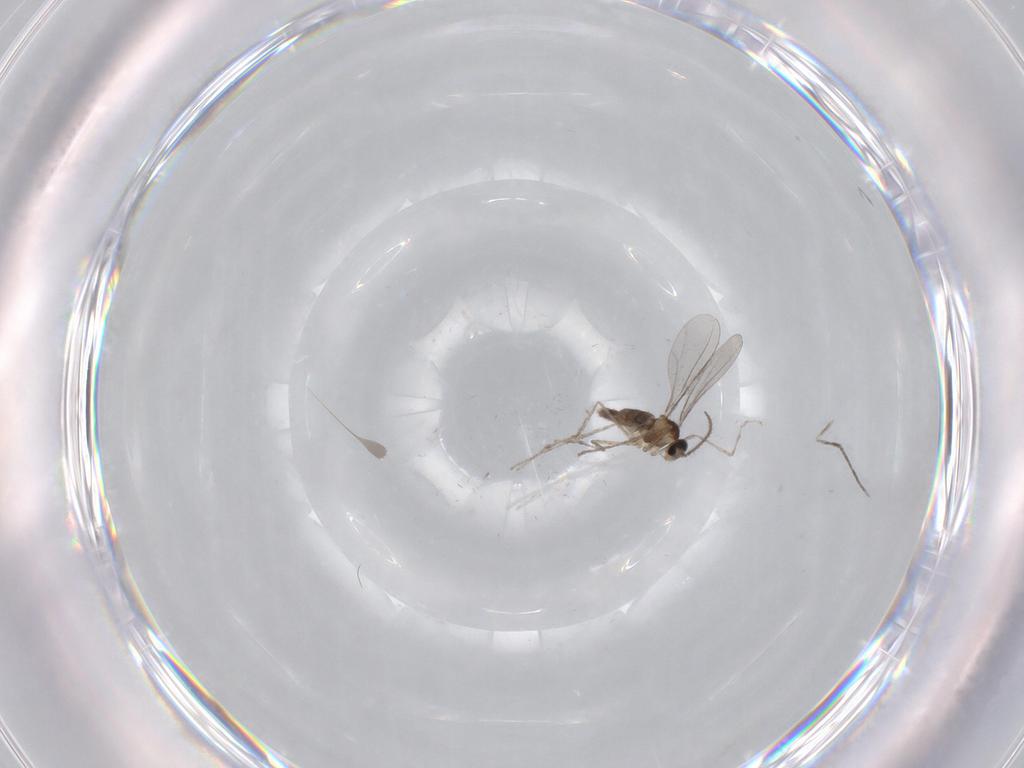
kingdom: Animalia
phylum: Arthropoda
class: Insecta
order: Diptera
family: Cecidomyiidae
